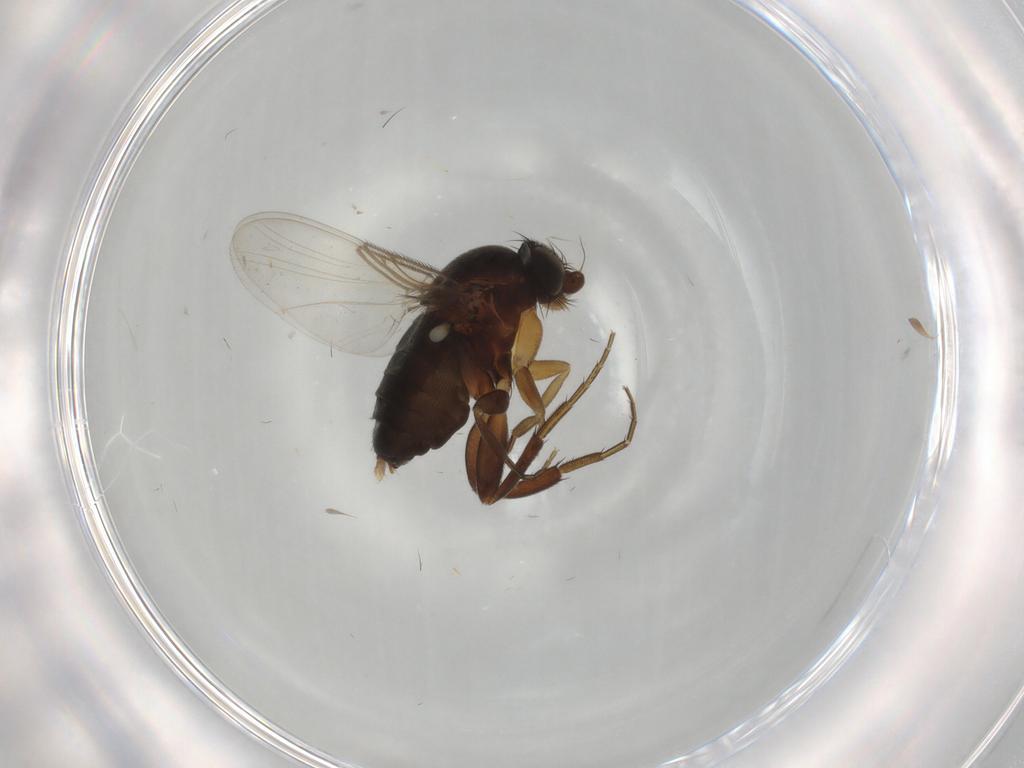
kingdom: Animalia
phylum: Arthropoda
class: Insecta
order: Diptera
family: Phoridae
